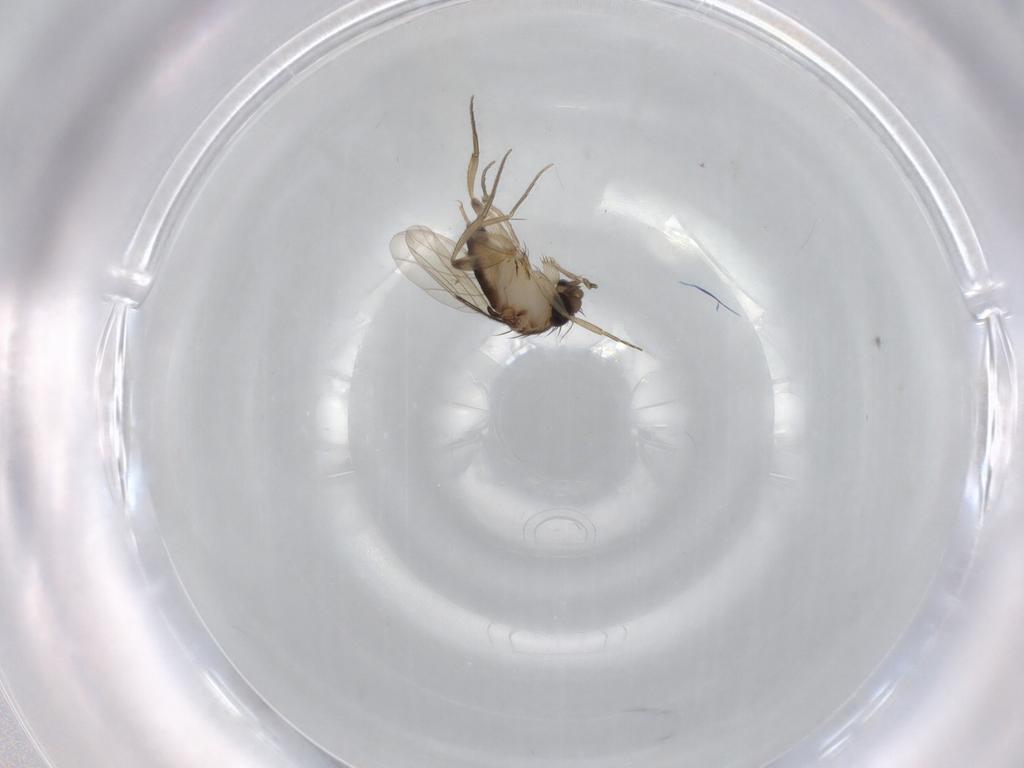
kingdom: Animalia
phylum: Arthropoda
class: Insecta
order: Diptera
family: Phoridae
